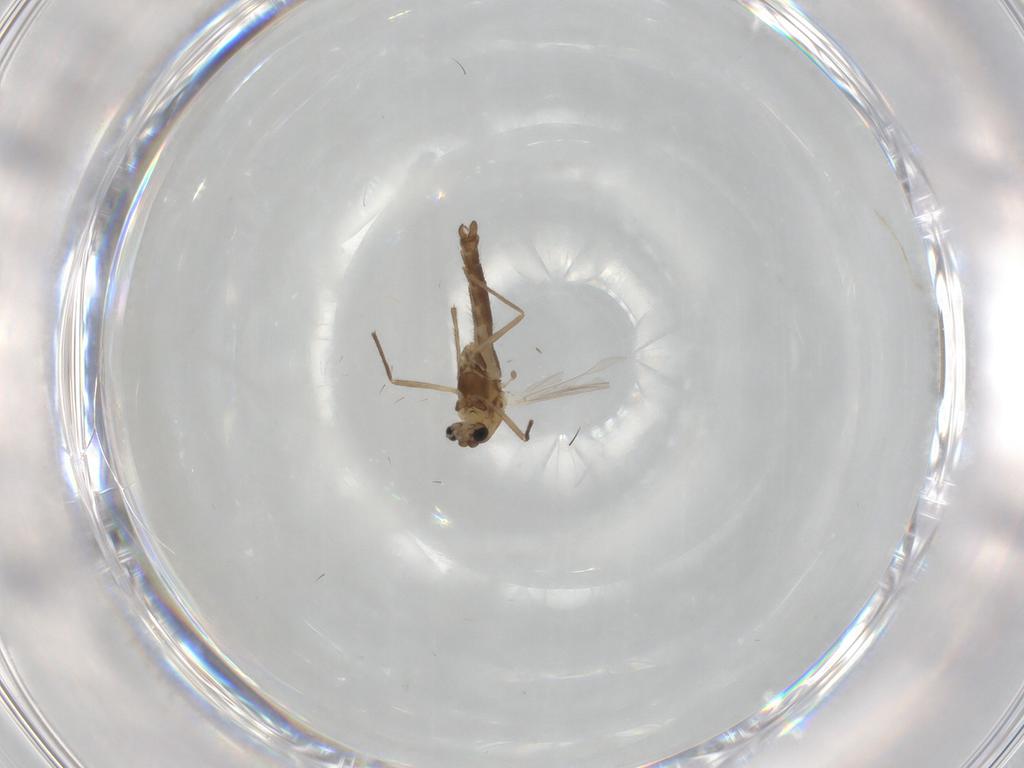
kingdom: Animalia
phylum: Arthropoda
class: Insecta
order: Diptera
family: Chironomidae
